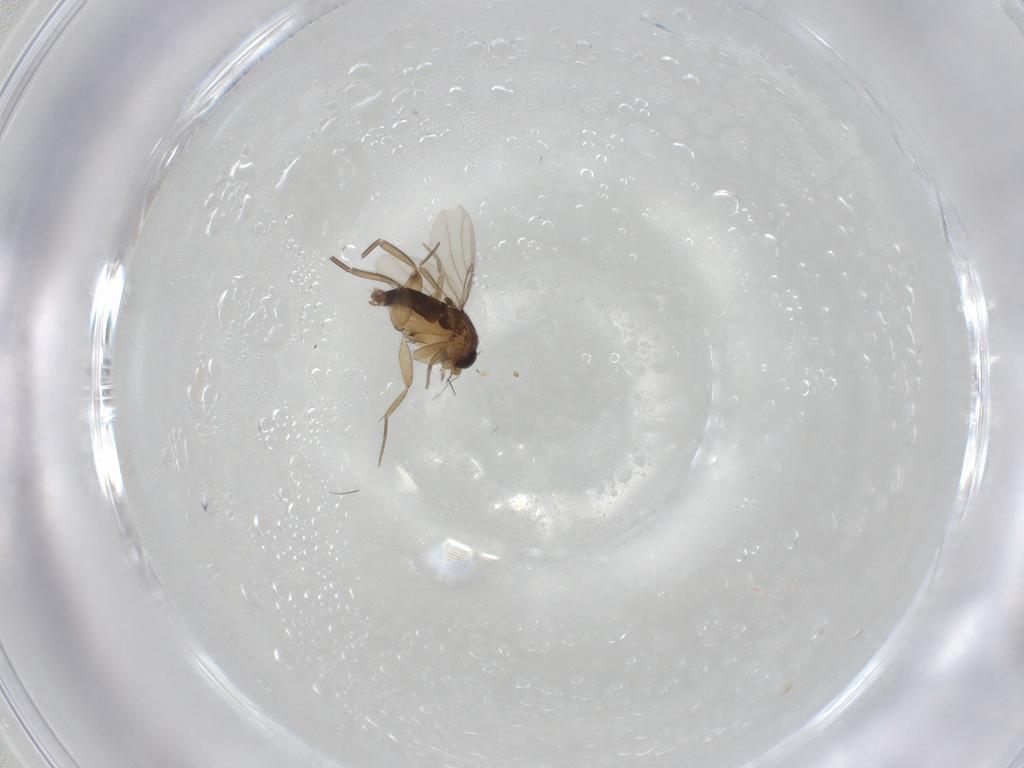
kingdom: Animalia
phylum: Arthropoda
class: Insecta
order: Diptera
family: Phoridae
